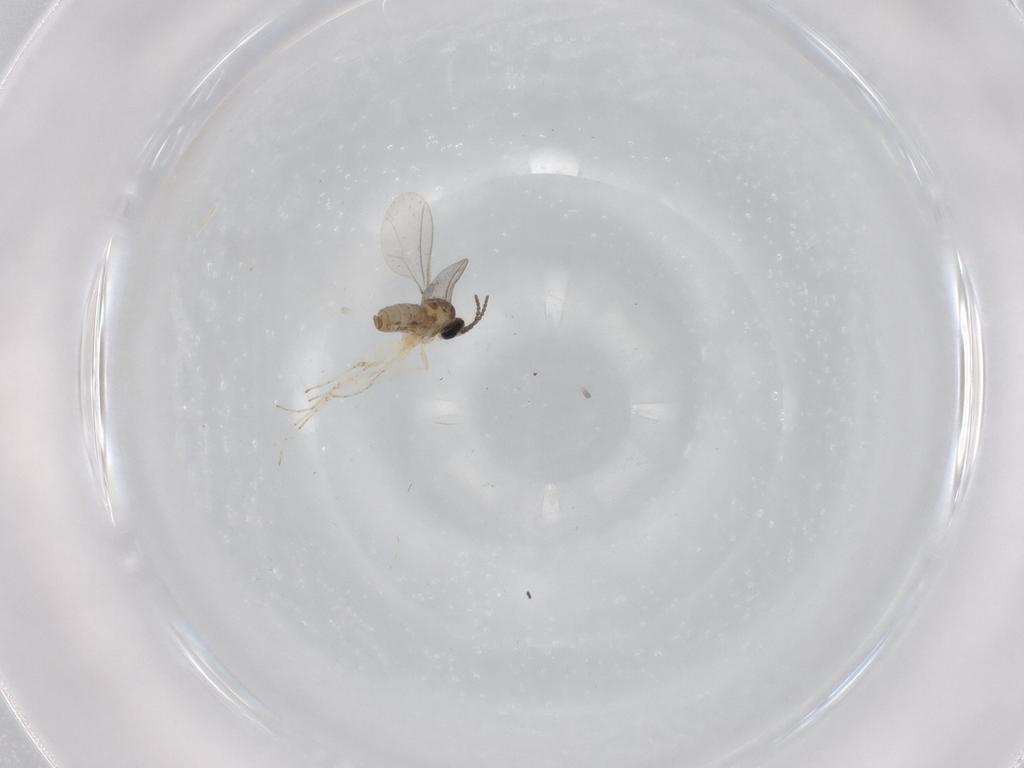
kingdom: Animalia
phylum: Arthropoda
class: Insecta
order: Diptera
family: Cecidomyiidae
